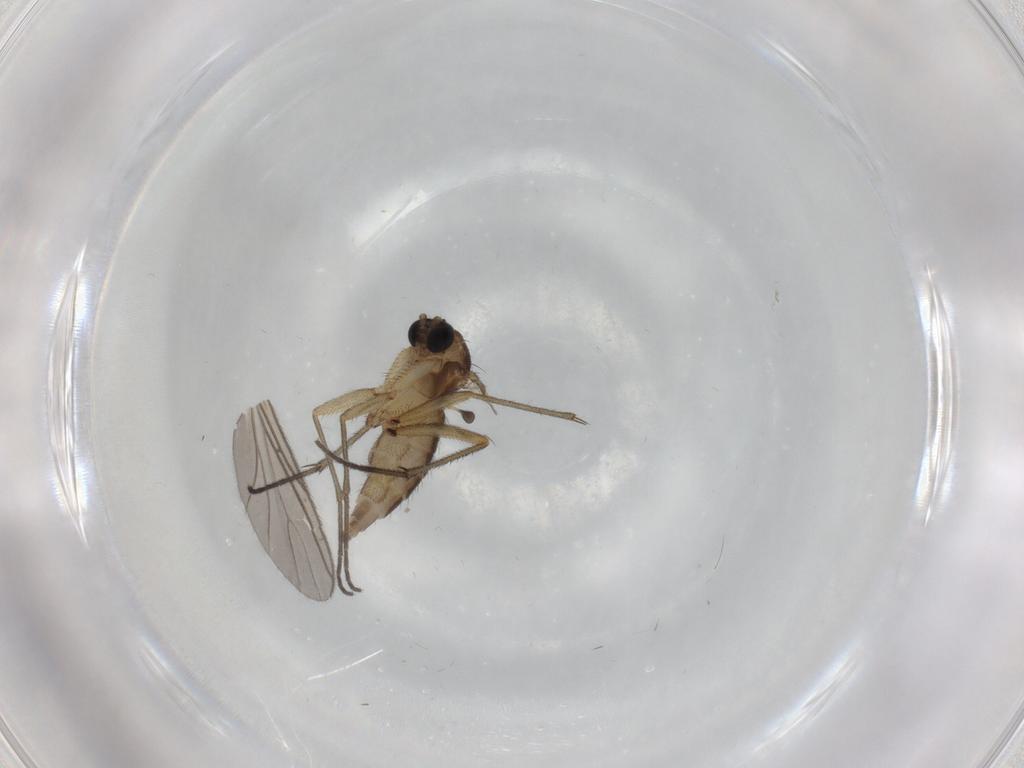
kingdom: Animalia
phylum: Arthropoda
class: Insecta
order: Diptera
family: Sciaridae
